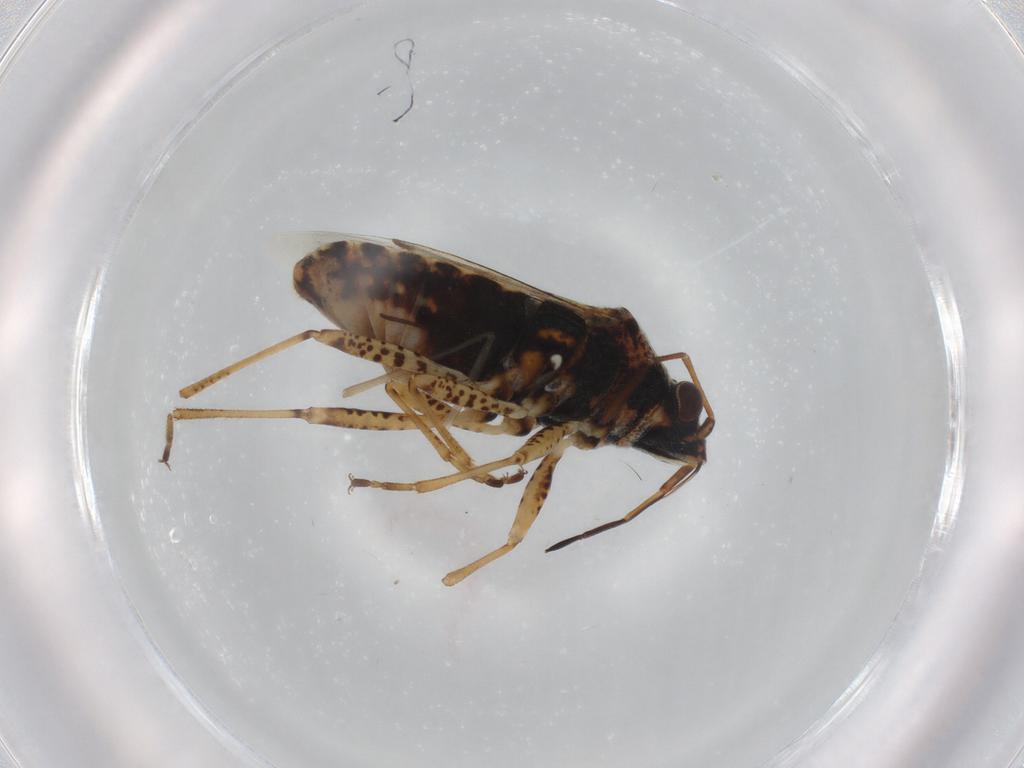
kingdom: Animalia
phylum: Arthropoda
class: Insecta
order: Hemiptera
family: Lygaeidae
